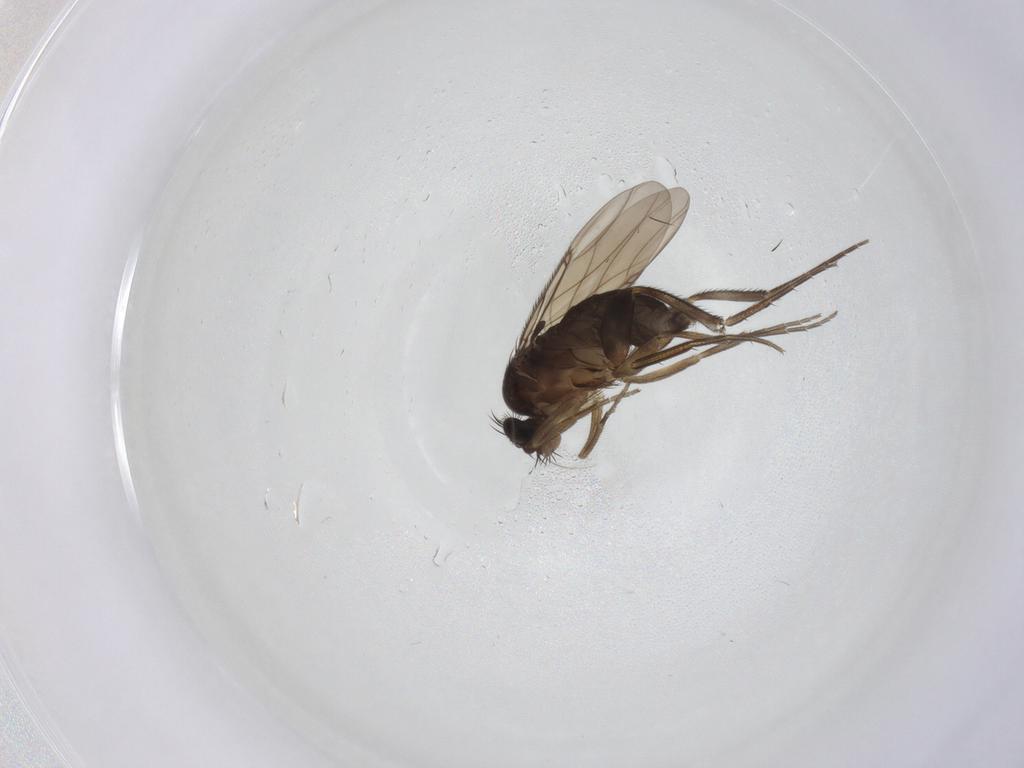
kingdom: Animalia
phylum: Arthropoda
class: Insecta
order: Diptera
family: Phoridae
